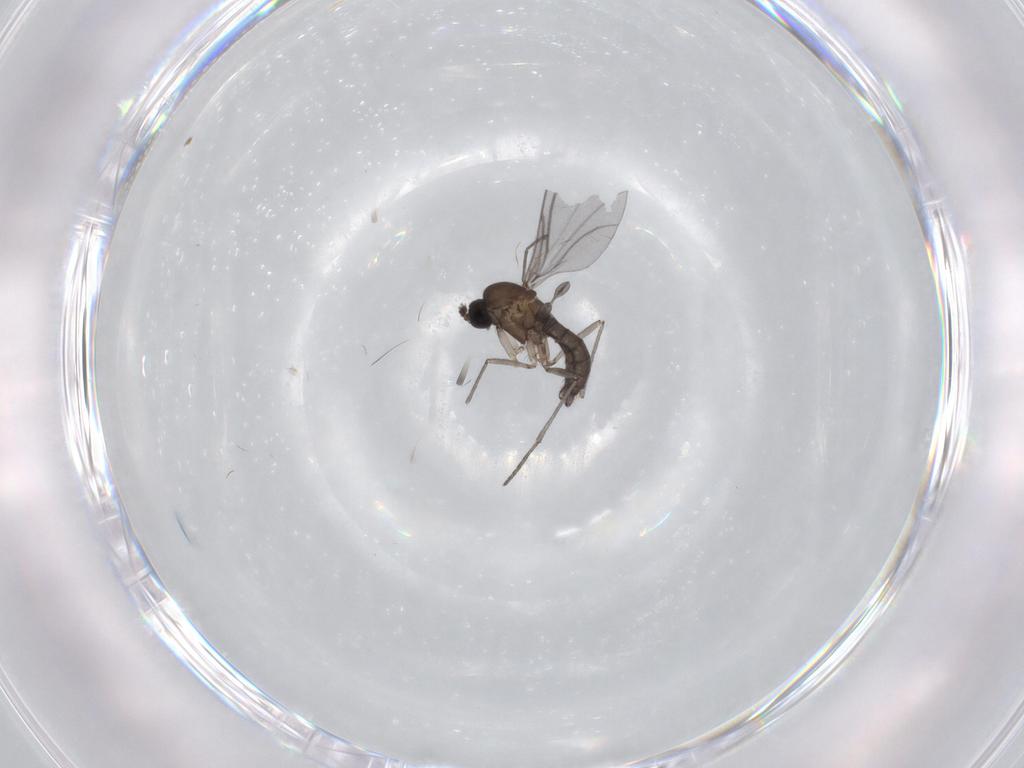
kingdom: Animalia
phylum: Arthropoda
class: Insecta
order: Diptera
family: Sciaridae
